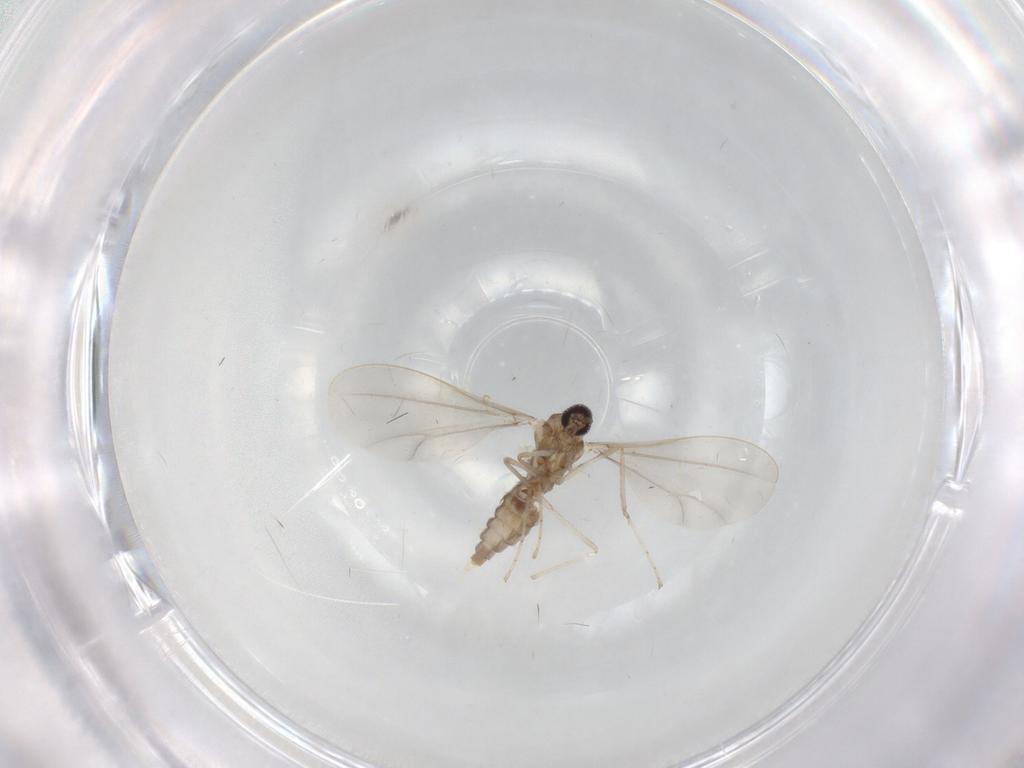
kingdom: Animalia
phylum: Arthropoda
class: Insecta
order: Diptera
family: Cecidomyiidae
